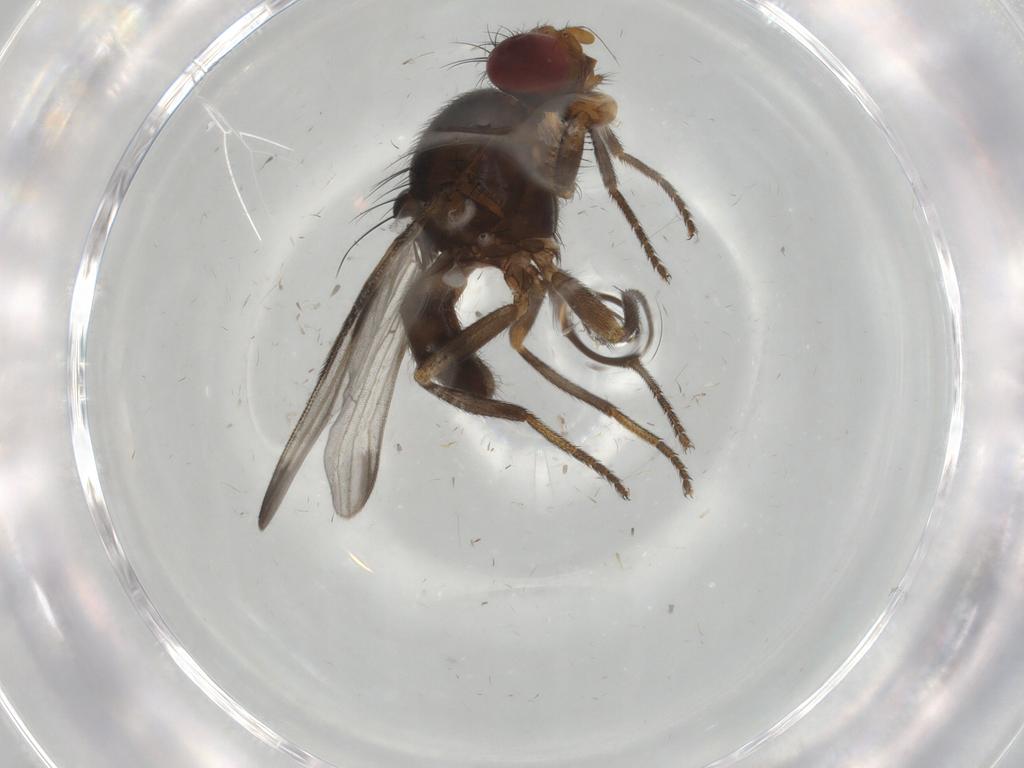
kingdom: Animalia
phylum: Arthropoda
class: Insecta
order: Diptera
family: Ulidiidae
